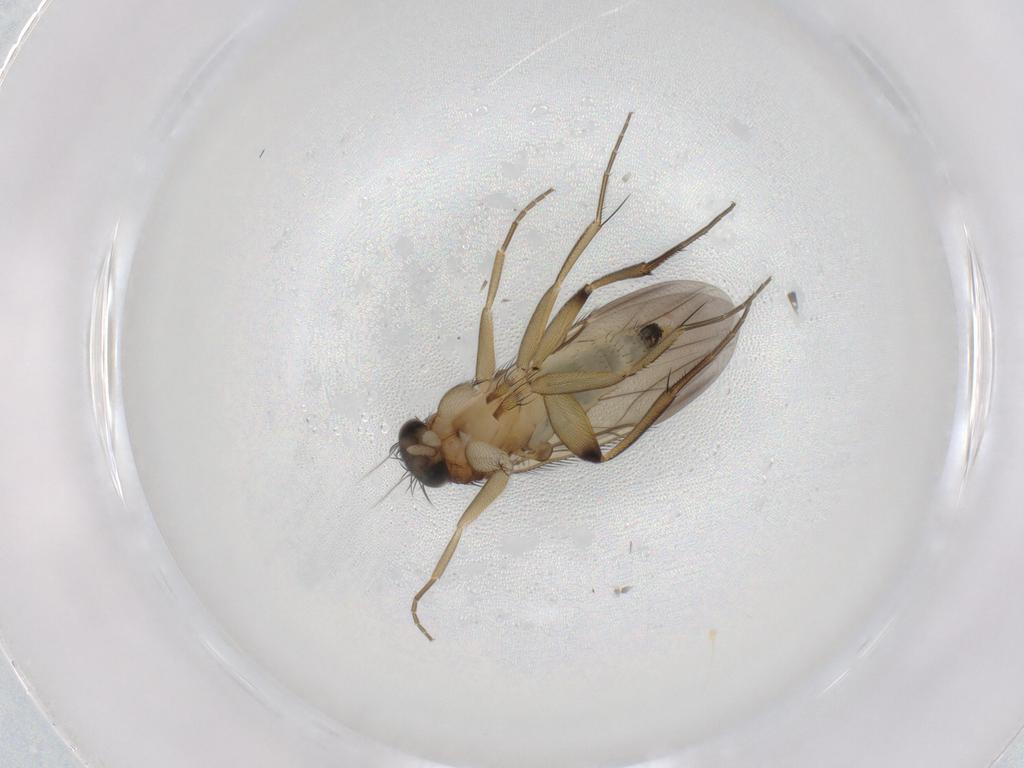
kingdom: Animalia
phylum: Arthropoda
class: Insecta
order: Diptera
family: Phoridae
